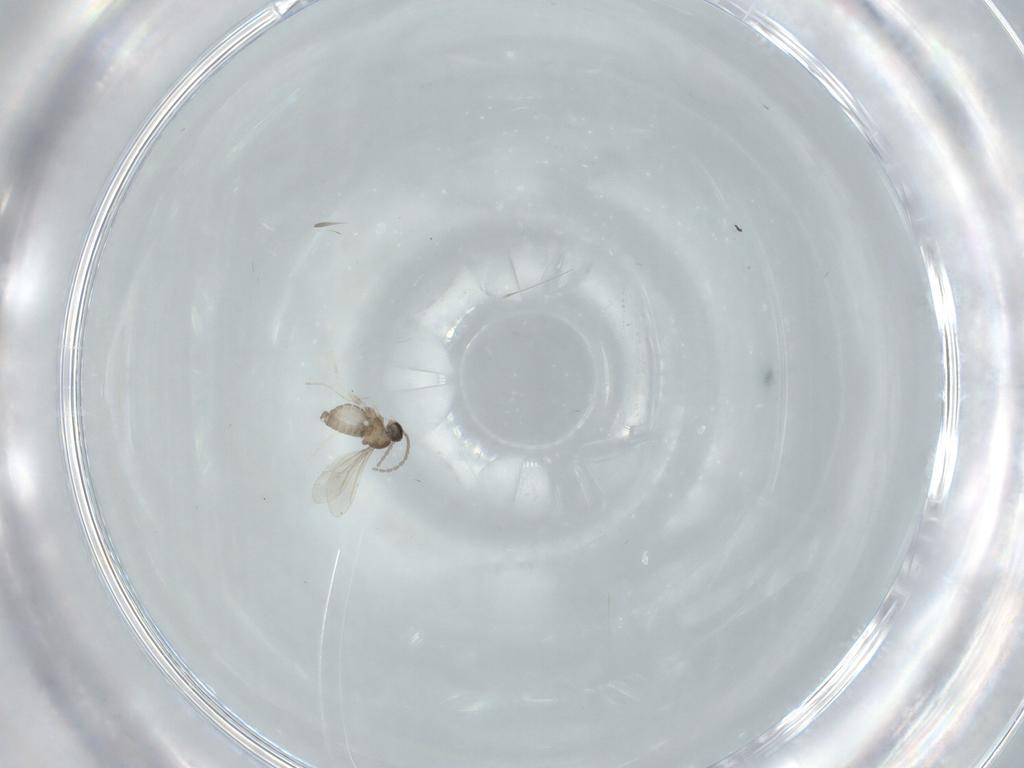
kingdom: Animalia
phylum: Arthropoda
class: Insecta
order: Diptera
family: Cecidomyiidae
